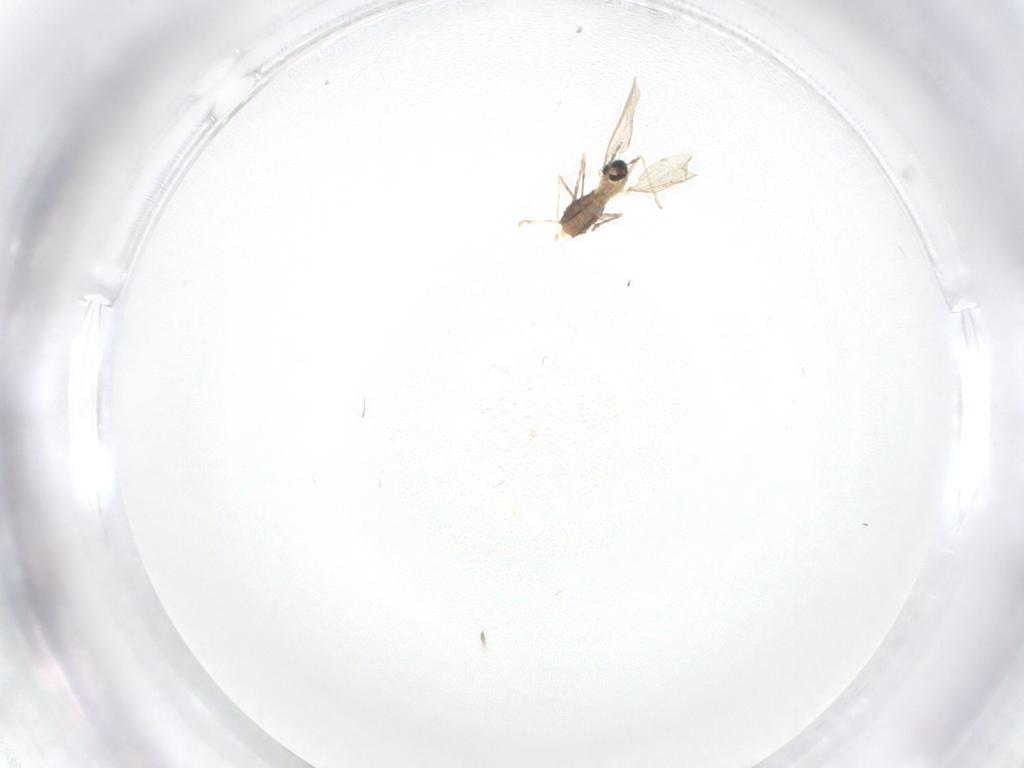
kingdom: Animalia
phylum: Arthropoda
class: Insecta
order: Diptera
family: Cecidomyiidae
